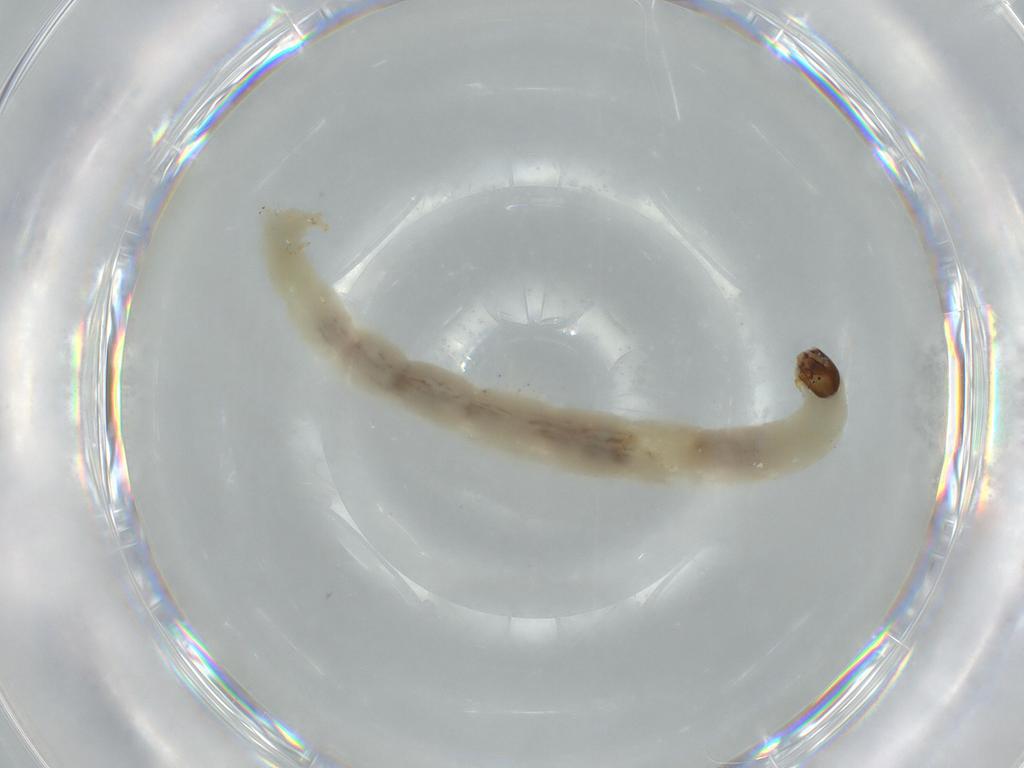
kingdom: Animalia
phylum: Arthropoda
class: Insecta
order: Diptera
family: Chironomidae
